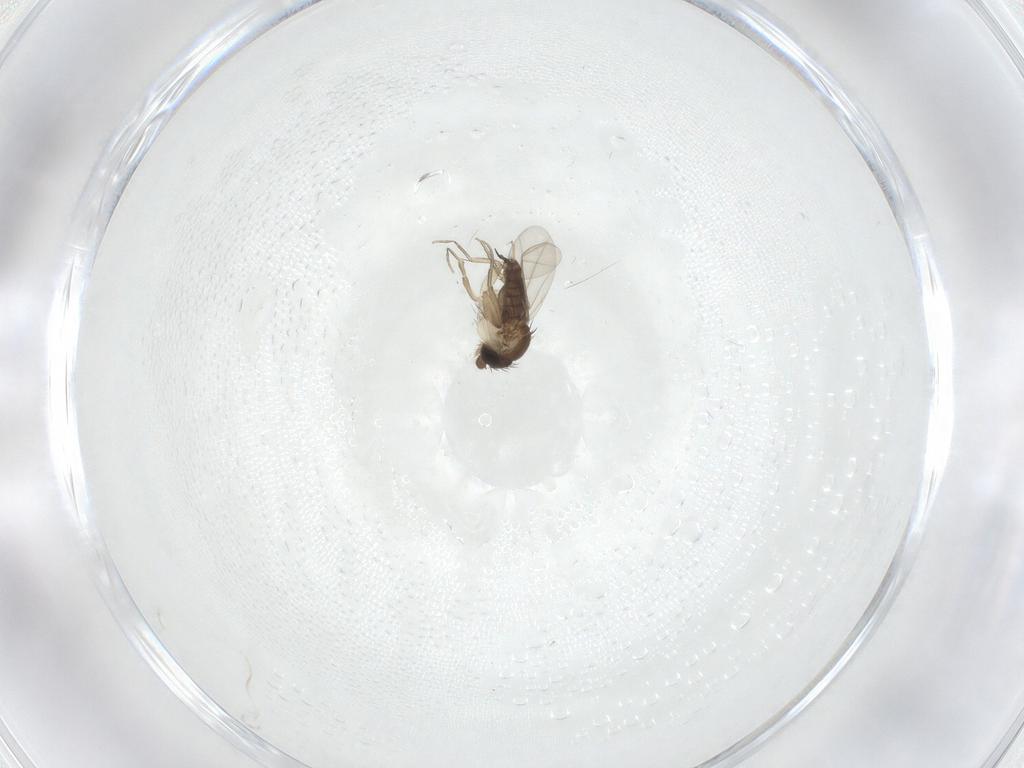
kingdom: Animalia
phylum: Arthropoda
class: Insecta
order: Diptera
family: Phoridae
